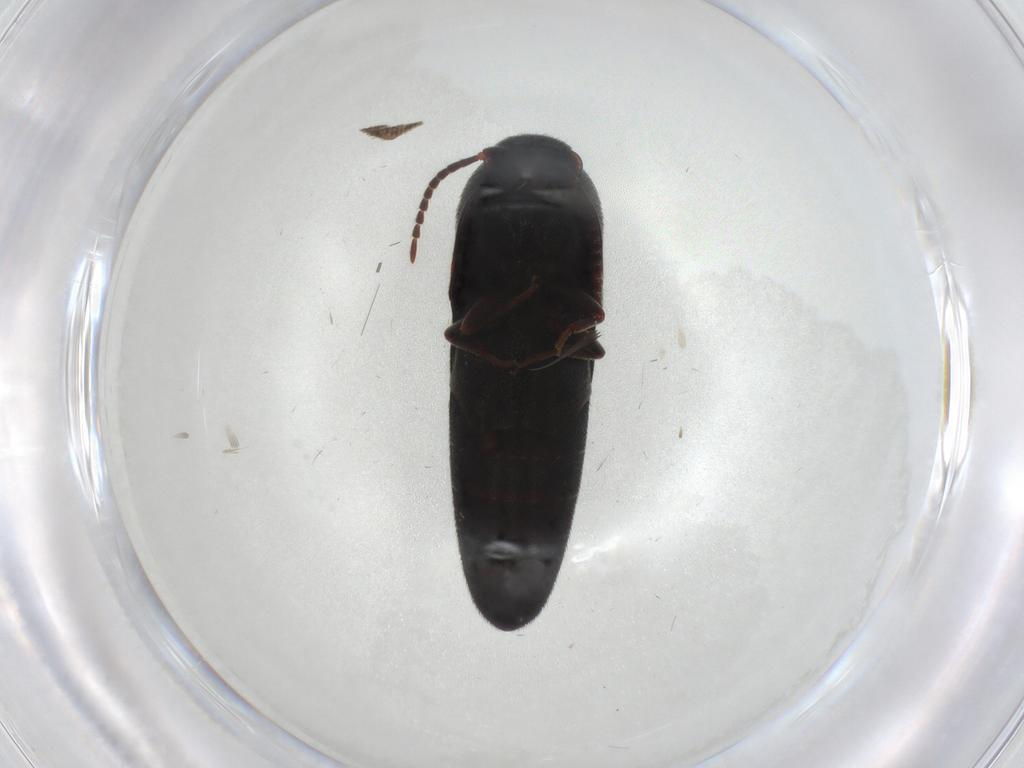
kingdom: Animalia
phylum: Arthropoda
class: Insecta
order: Coleoptera
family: Eucnemidae
